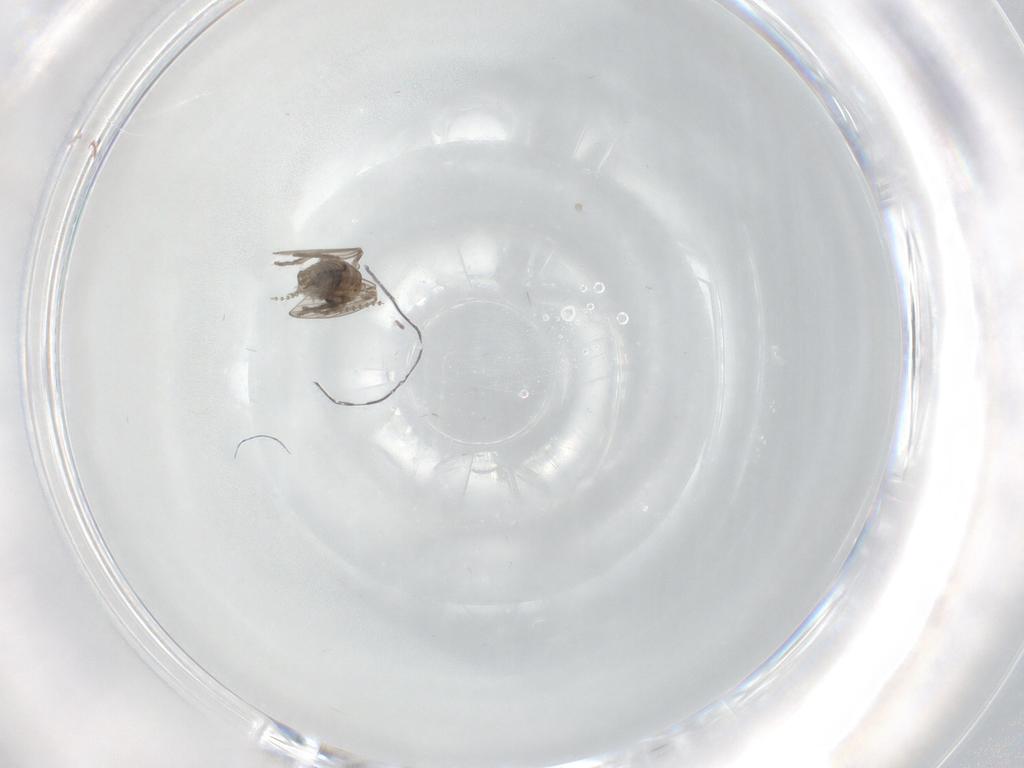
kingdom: Animalia
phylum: Arthropoda
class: Insecta
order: Diptera
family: Psychodidae
